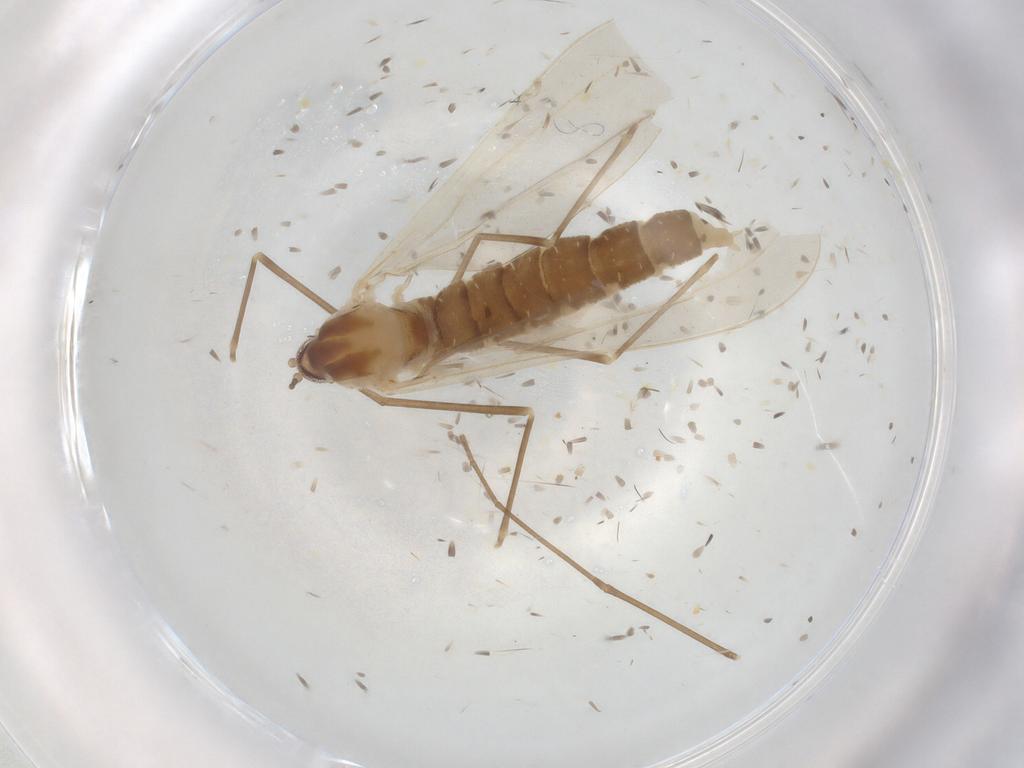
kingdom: Animalia
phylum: Arthropoda
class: Insecta
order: Diptera
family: Cecidomyiidae
